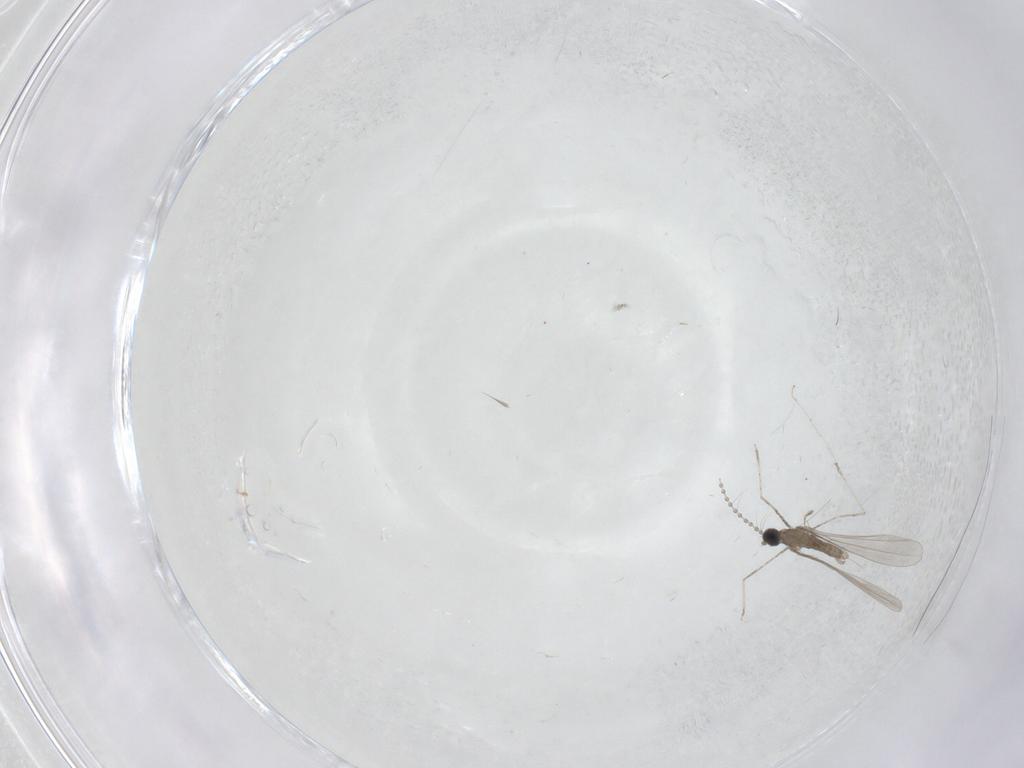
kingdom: Animalia
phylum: Arthropoda
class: Insecta
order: Diptera
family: Cecidomyiidae
